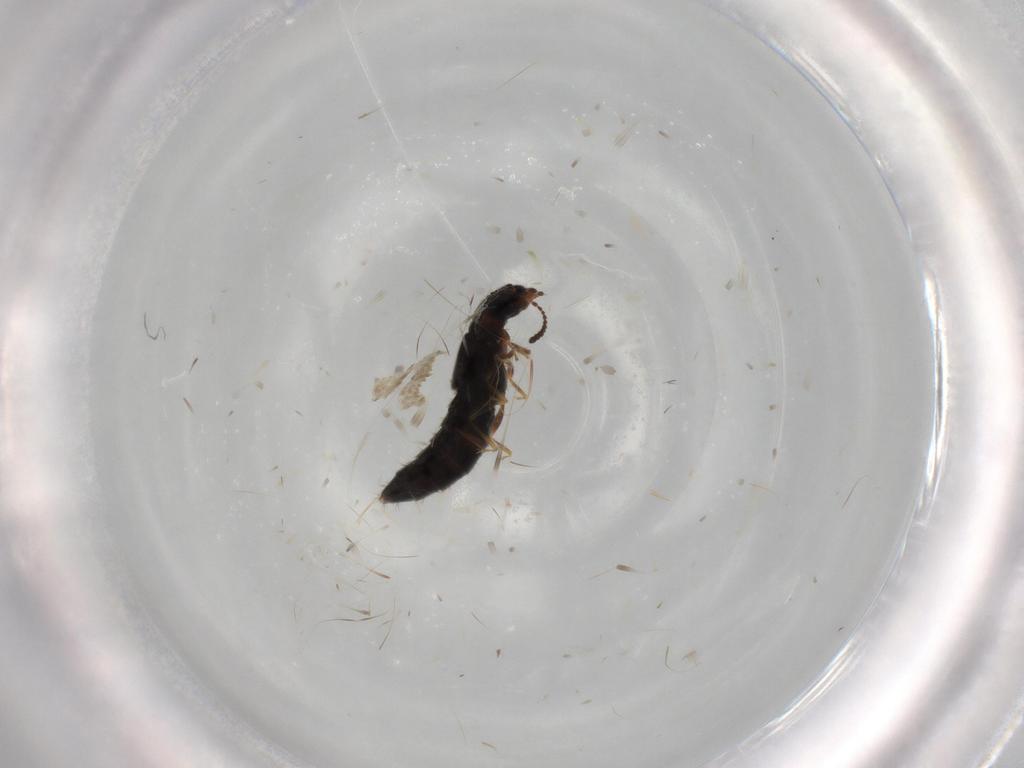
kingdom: Animalia
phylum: Arthropoda
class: Insecta
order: Coleoptera
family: Staphylinidae
